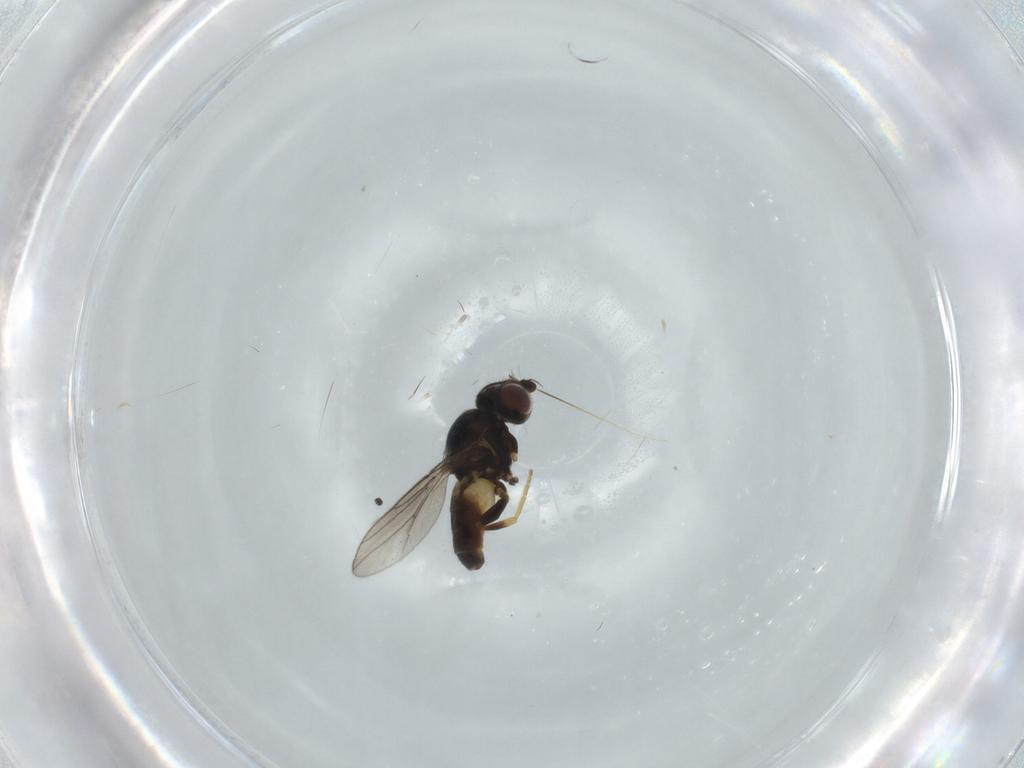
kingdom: Animalia
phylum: Arthropoda
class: Insecta
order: Diptera
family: Chloropidae
